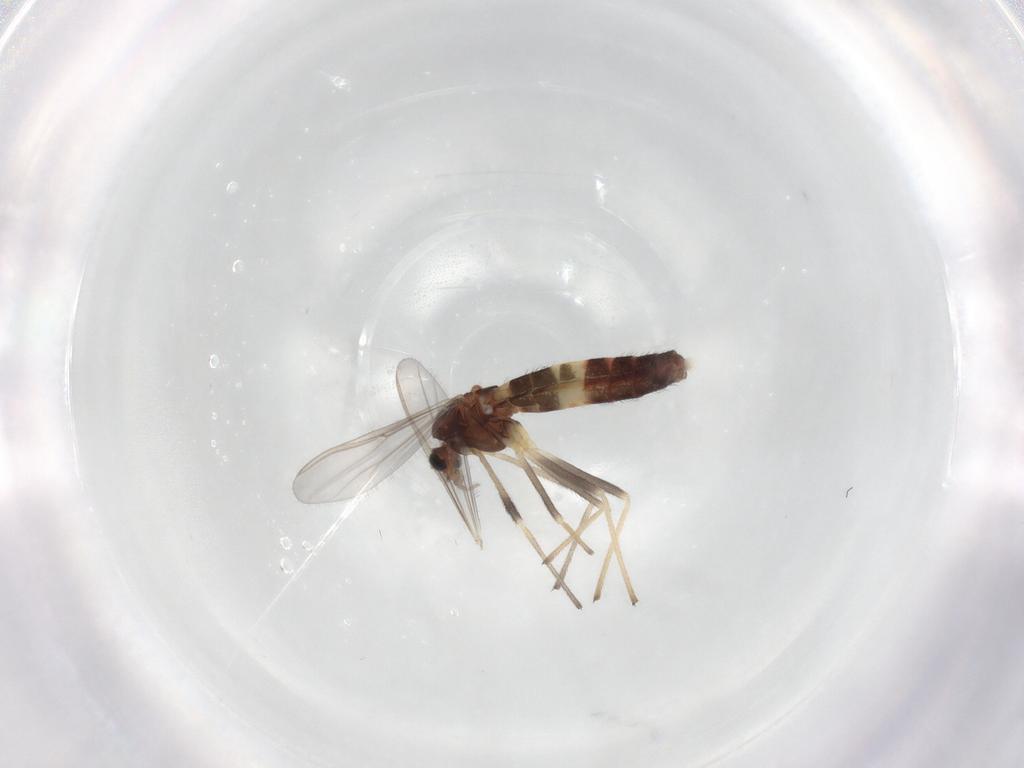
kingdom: Animalia
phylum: Arthropoda
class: Insecta
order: Diptera
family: Chironomidae
